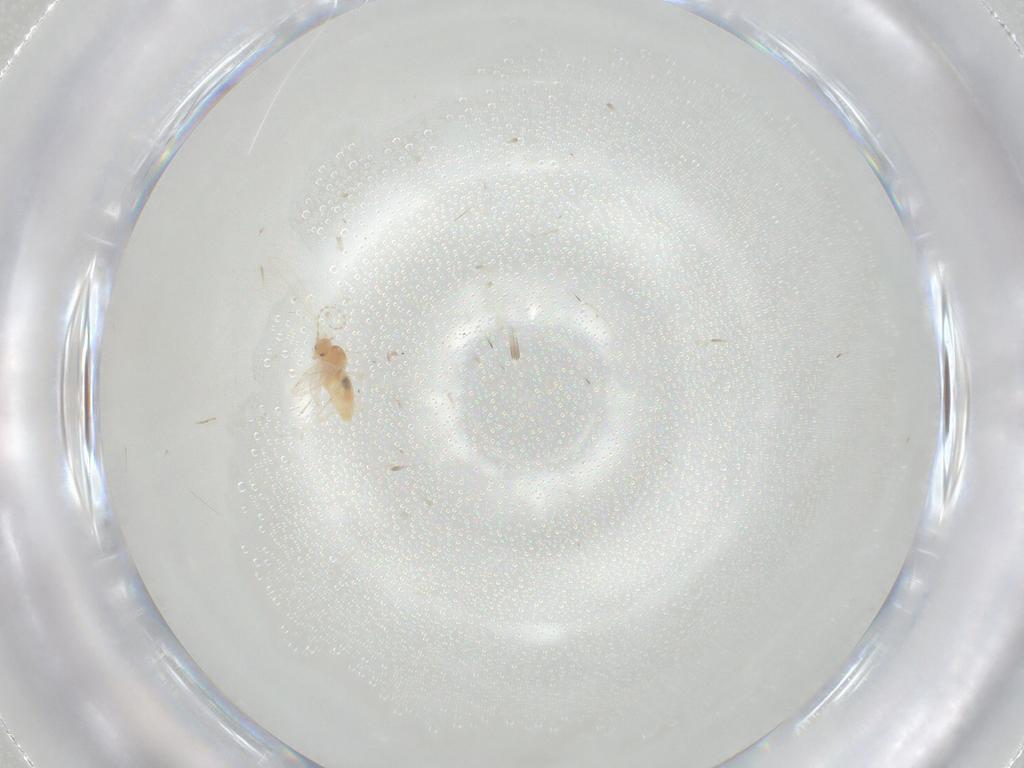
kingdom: Animalia
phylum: Arthropoda
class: Insecta
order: Diptera
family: Cecidomyiidae
